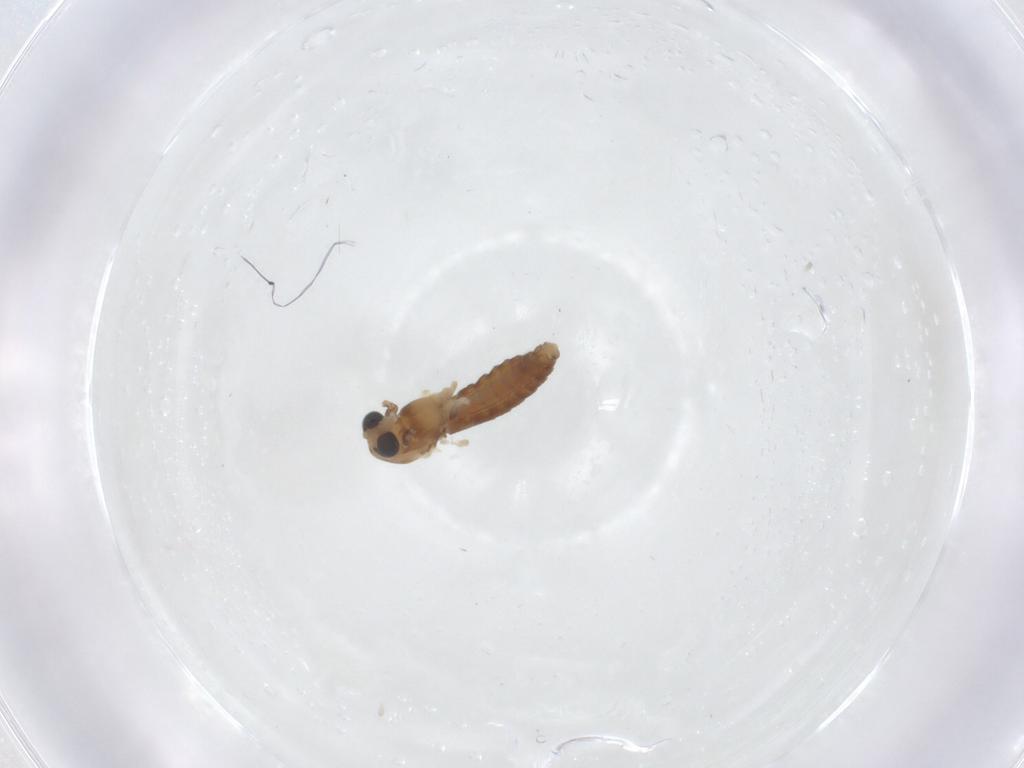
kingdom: Animalia
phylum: Arthropoda
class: Insecta
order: Diptera
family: Chironomidae
